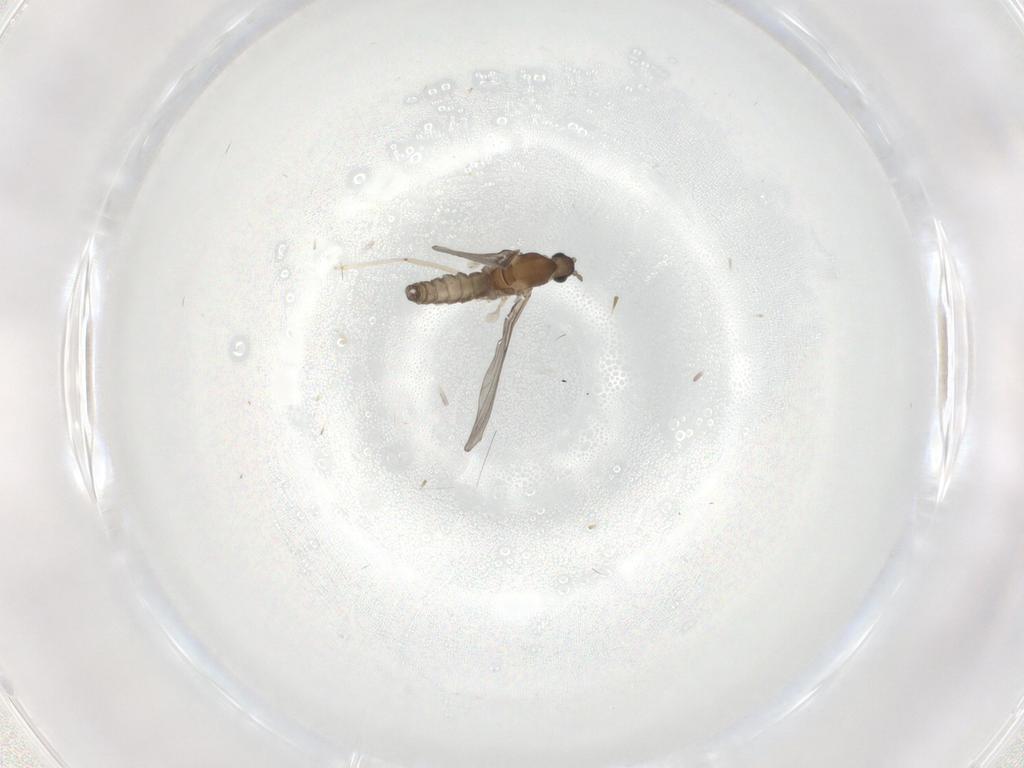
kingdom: Animalia
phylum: Arthropoda
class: Insecta
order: Diptera
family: Cecidomyiidae
